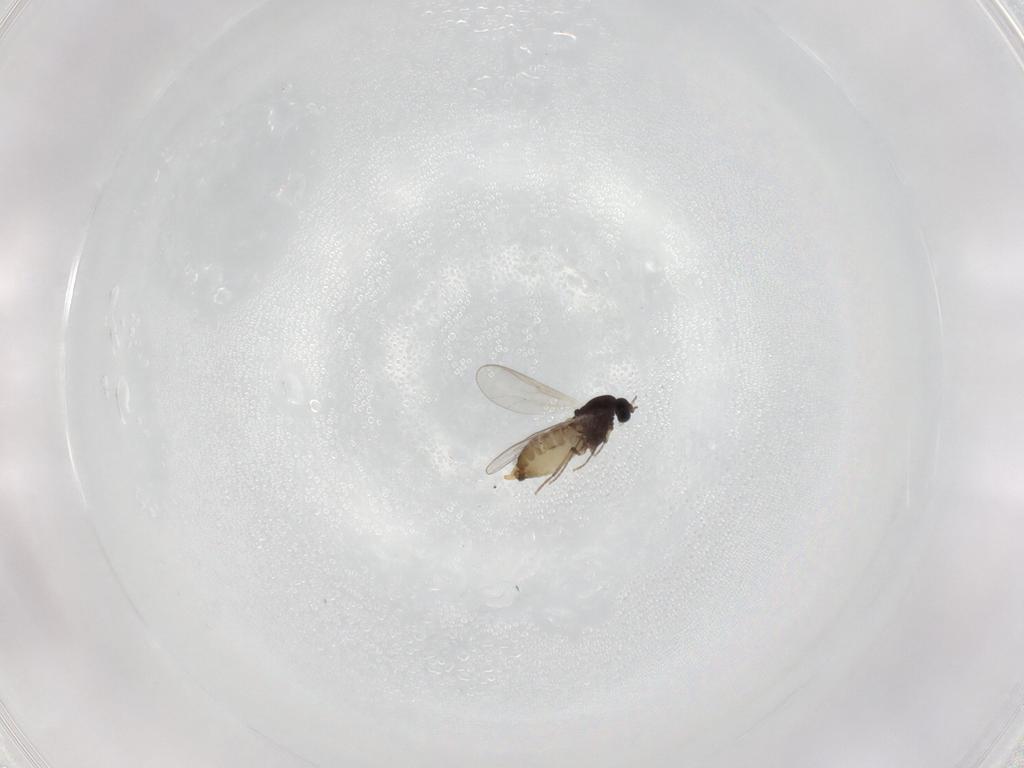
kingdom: Animalia
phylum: Arthropoda
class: Insecta
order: Diptera
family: Chironomidae
